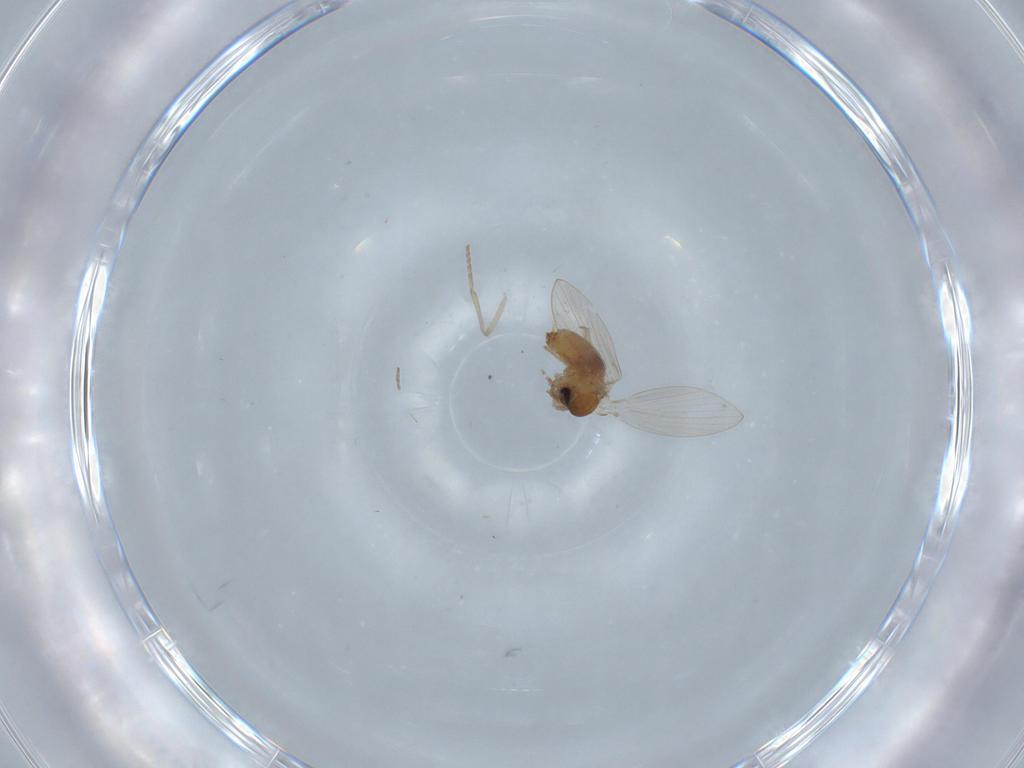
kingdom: Animalia
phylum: Arthropoda
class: Insecta
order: Diptera
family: Psychodidae
